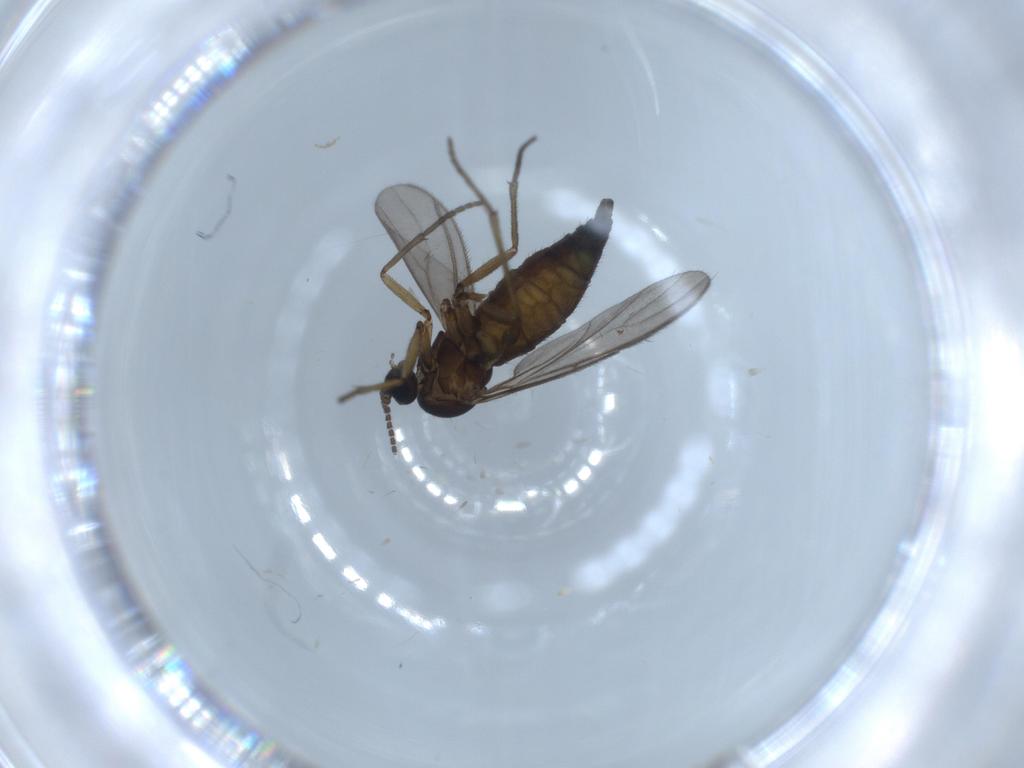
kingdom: Animalia
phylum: Arthropoda
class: Insecta
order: Diptera
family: Sciaridae
